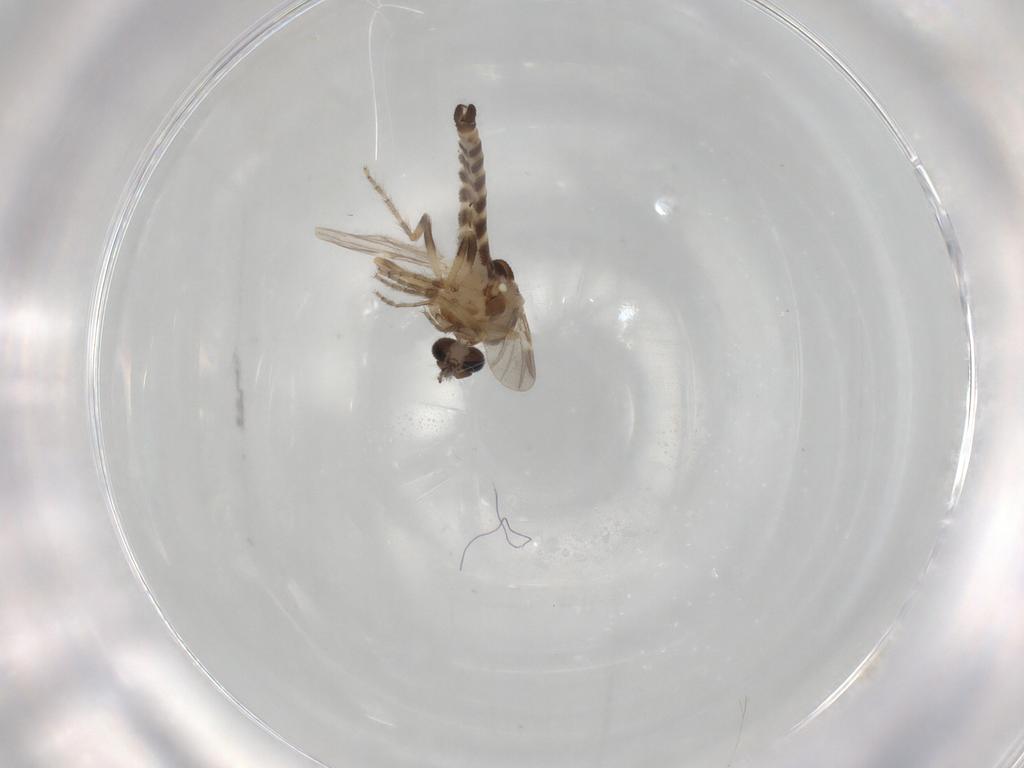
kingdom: Animalia
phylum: Arthropoda
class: Insecta
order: Diptera
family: Ceratopogonidae
